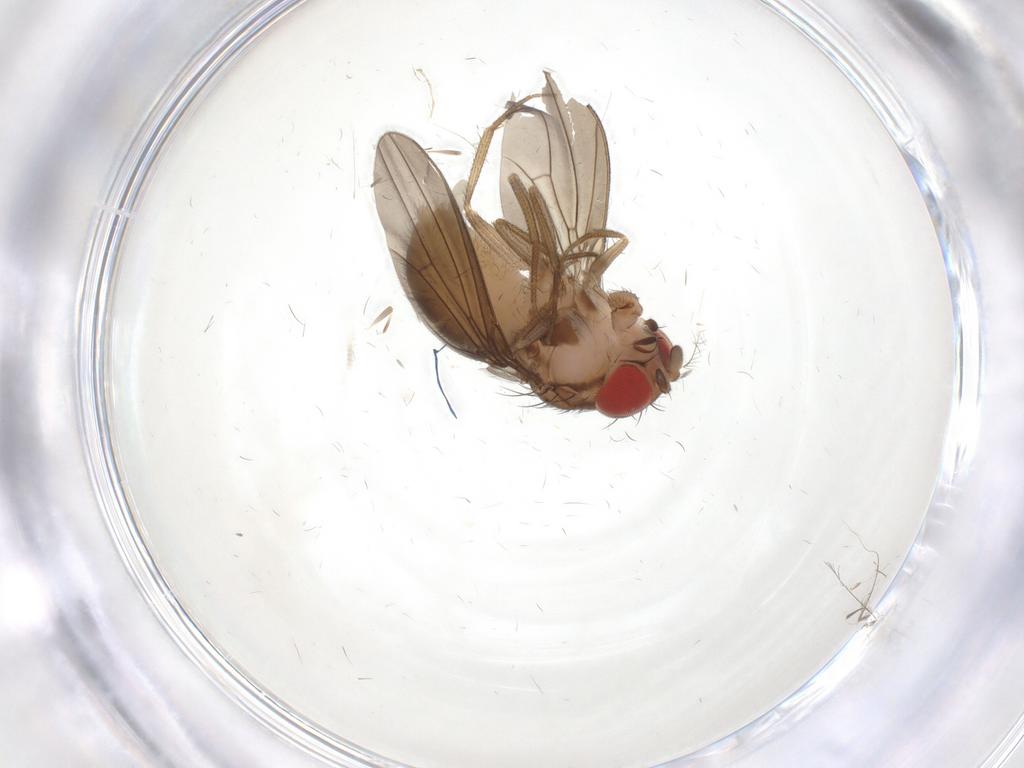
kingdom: Animalia
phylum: Arthropoda
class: Insecta
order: Diptera
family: Drosophilidae
